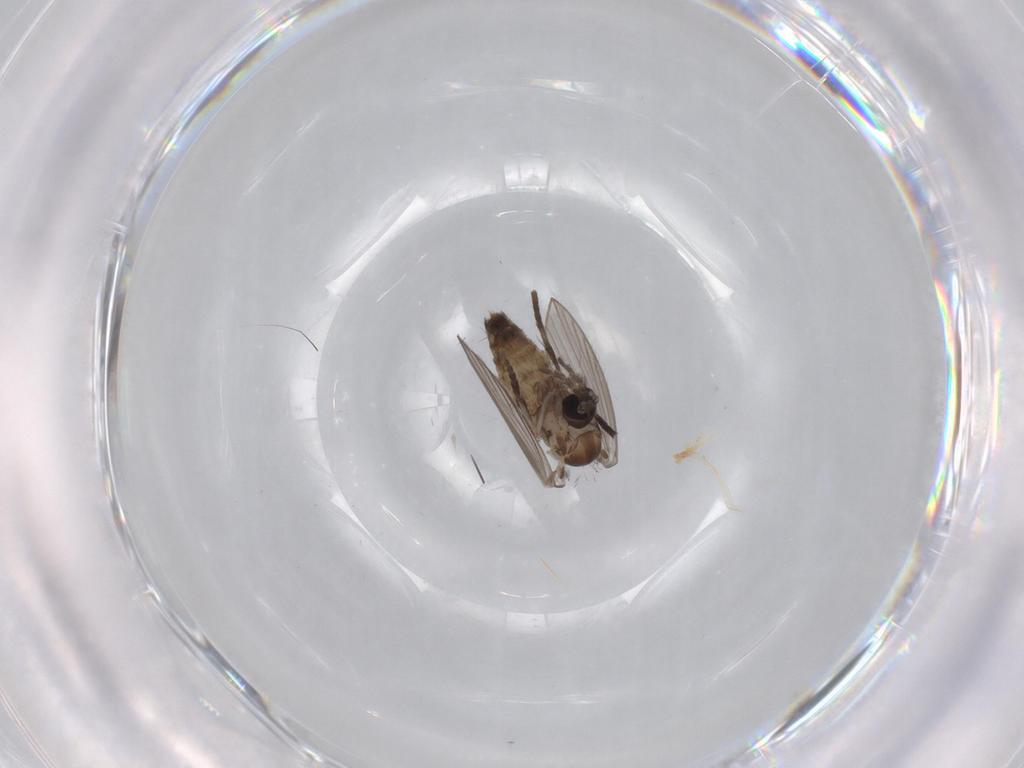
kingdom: Animalia
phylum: Arthropoda
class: Insecta
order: Diptera
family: Psychodidae
